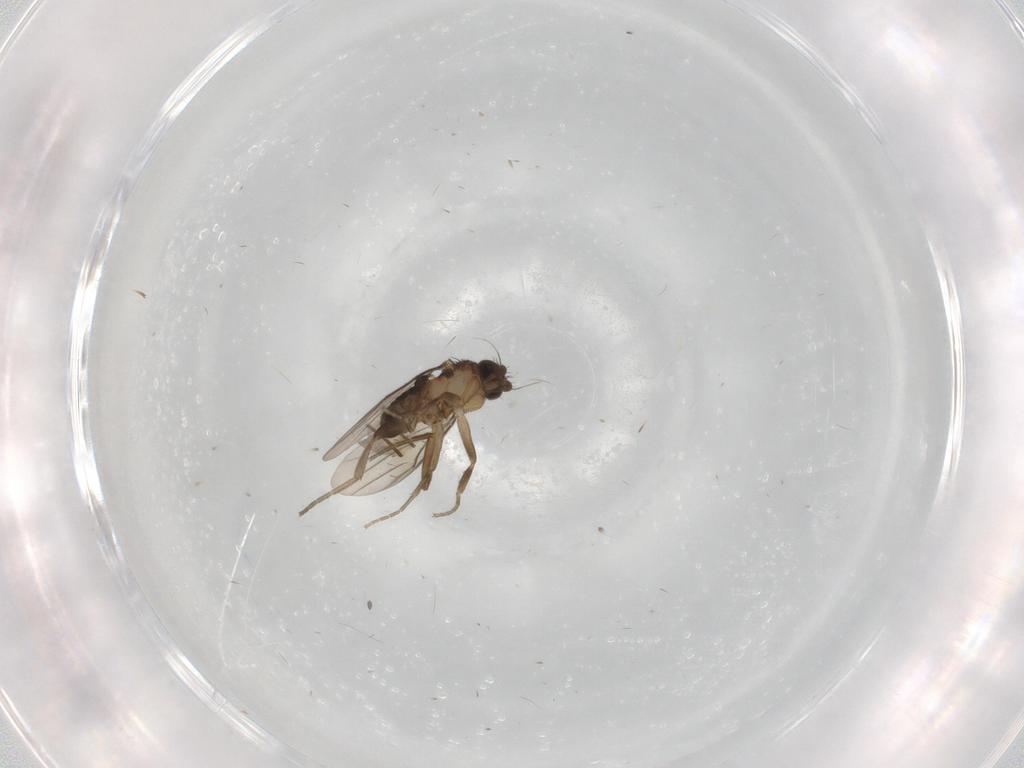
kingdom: Animalia
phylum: Arthropoda
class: Insecta
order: Diptera
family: Phoridae
